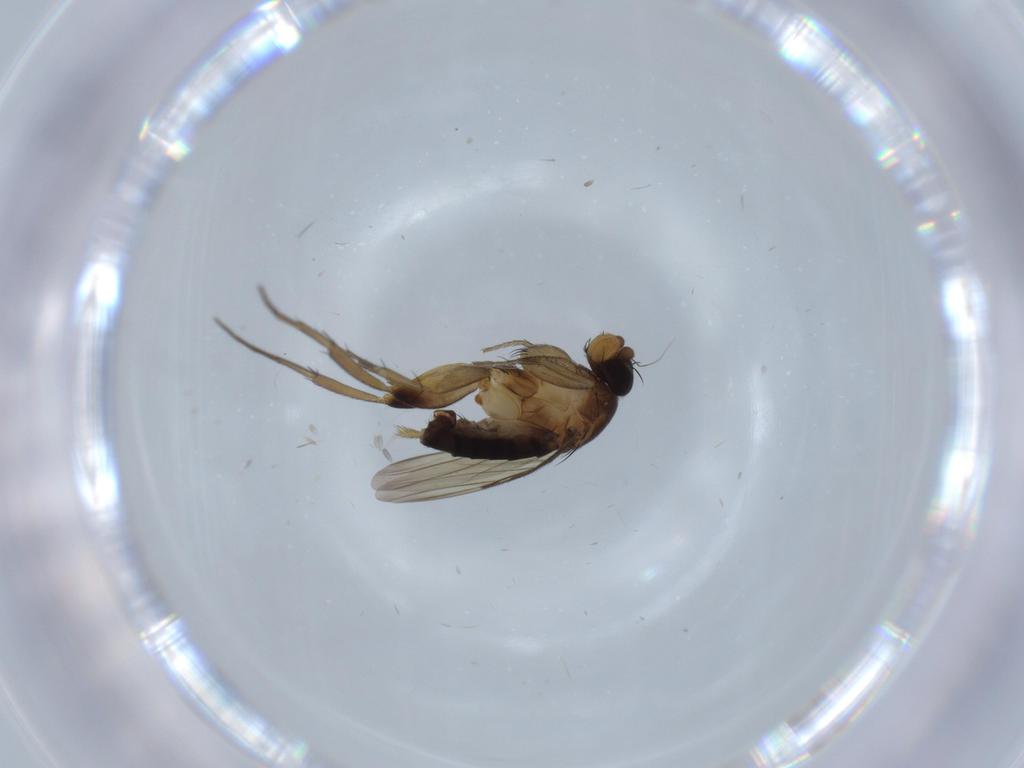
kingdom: Animalia
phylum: Arthropoda
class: Insecta
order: Diptera
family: Phoridae
